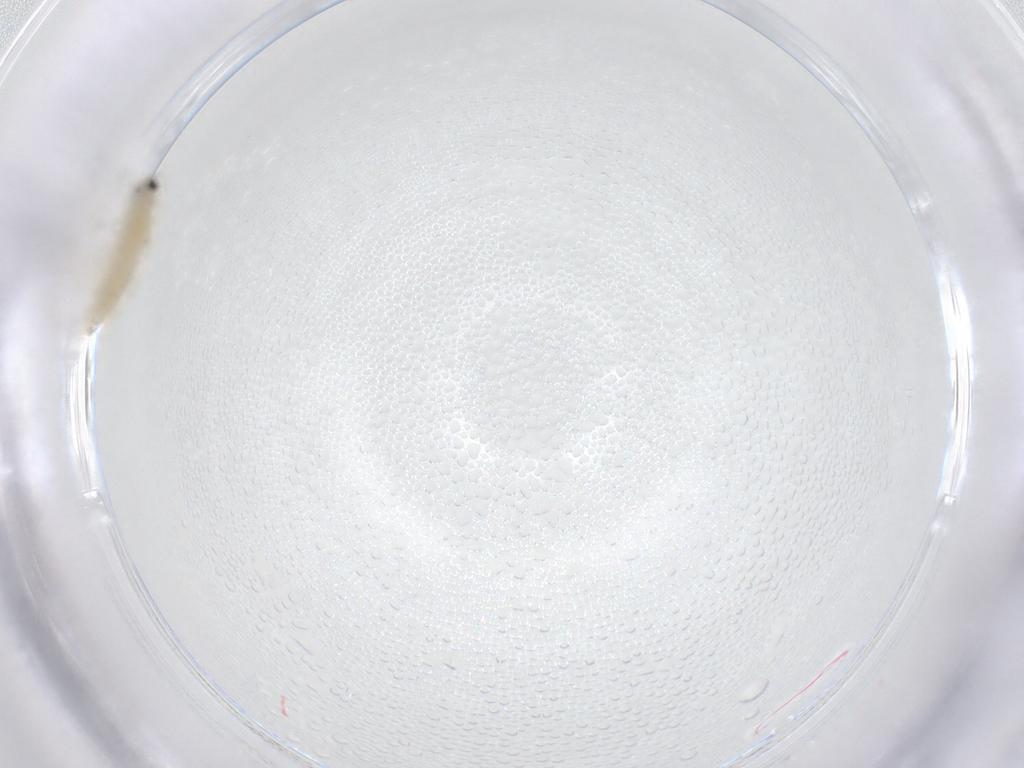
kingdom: Animalia
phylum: Arthropoda
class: Insecta
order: Diptera
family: Chironomidae
